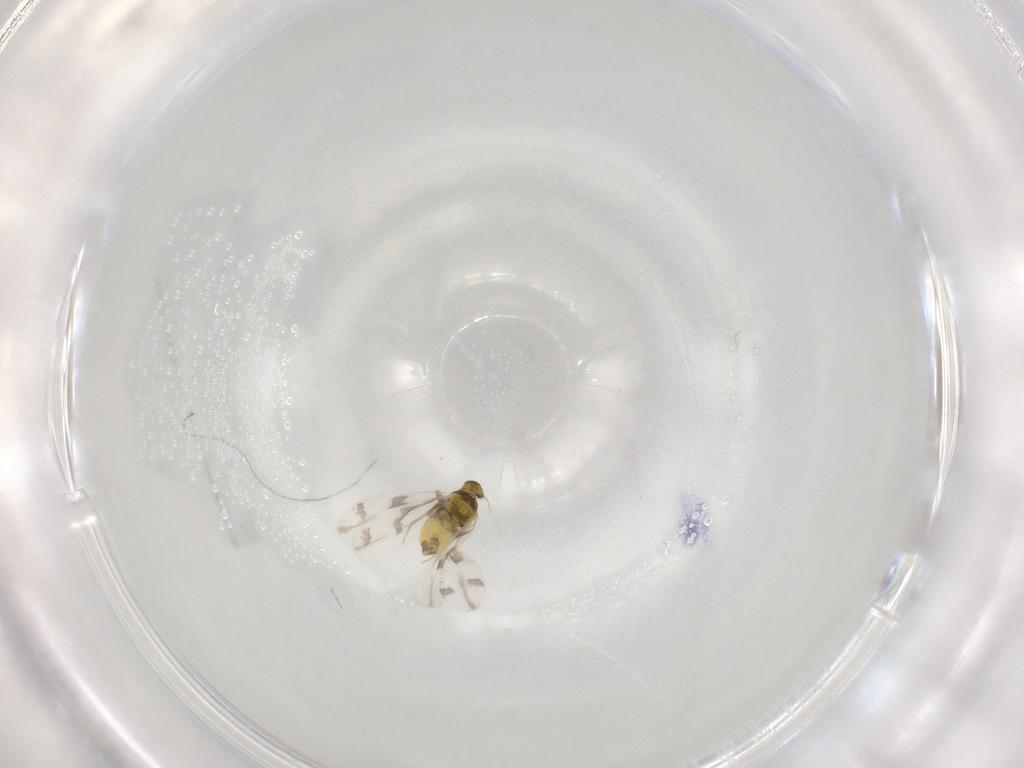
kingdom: Animalia
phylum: Arthropoda
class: Insecta
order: Hemiptera
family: Aleyrodidae
